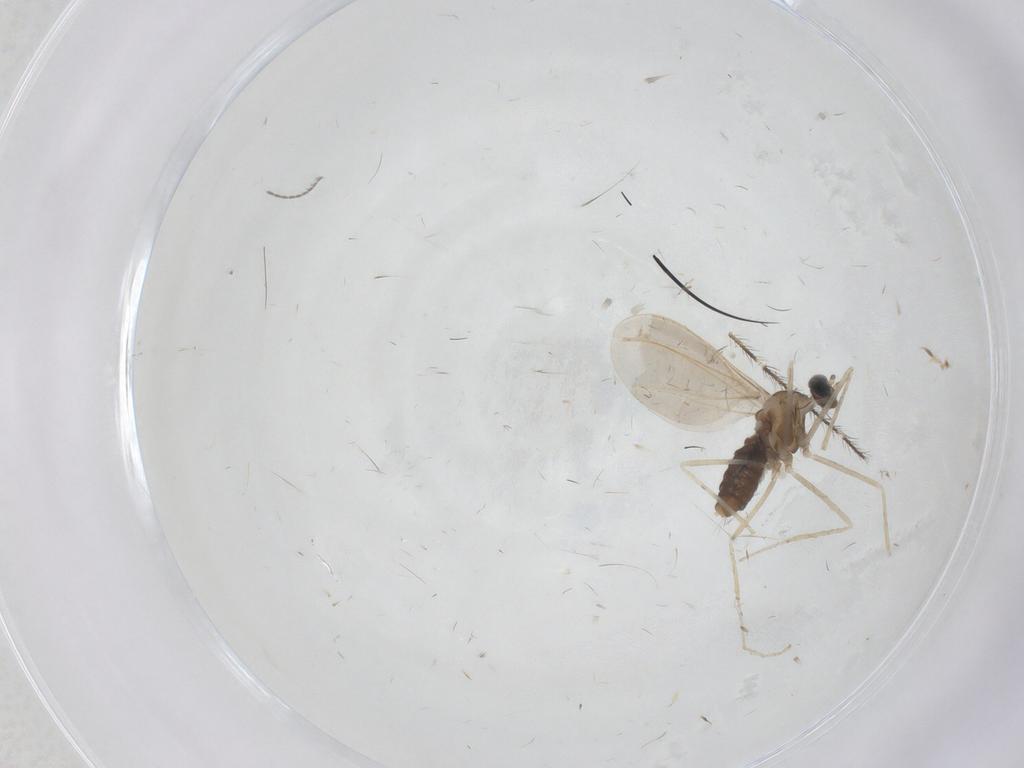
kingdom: Animalia
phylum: Arthropoda
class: Insecta
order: Diptera
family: Cecidomyiidae
